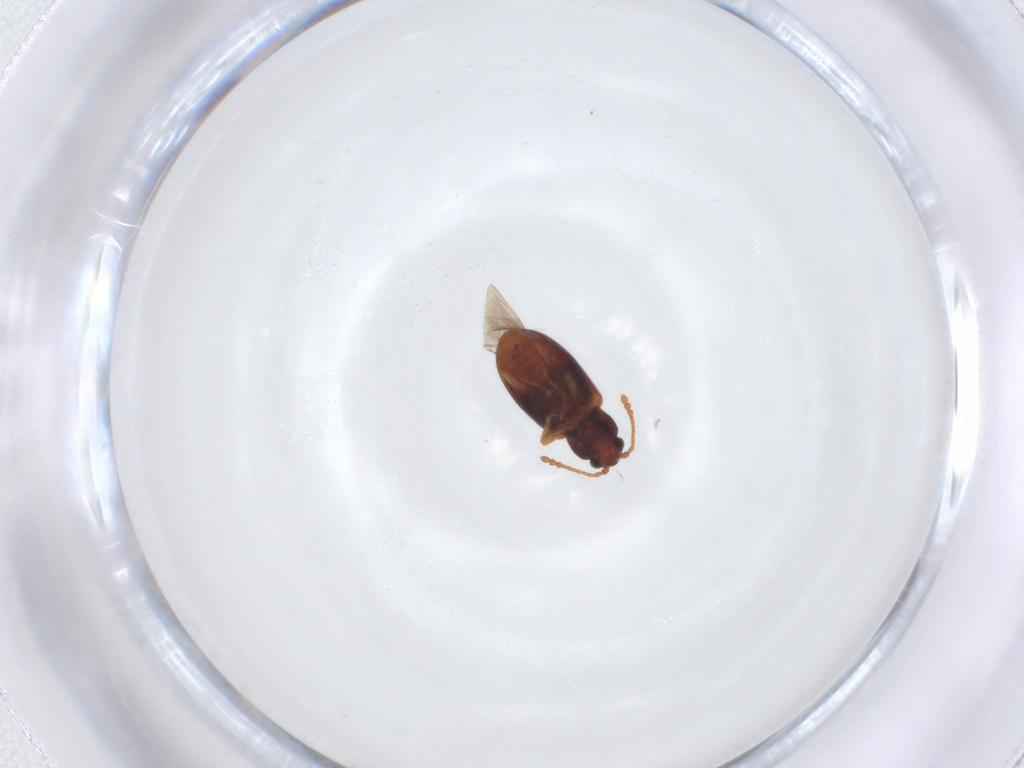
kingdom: Animalia
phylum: Arthropoda
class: Insecta
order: Coleoptera
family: Cryptophagidae
